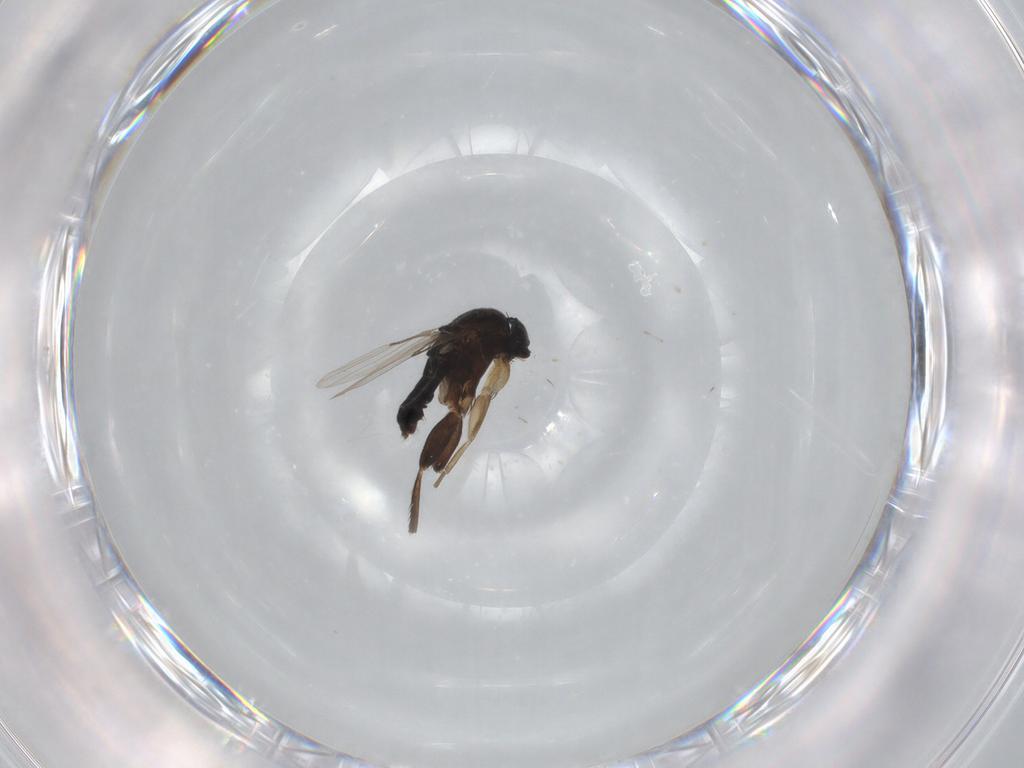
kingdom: Animalia
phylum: Arthropoda
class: Insecta
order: Diptera
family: Phoridae
